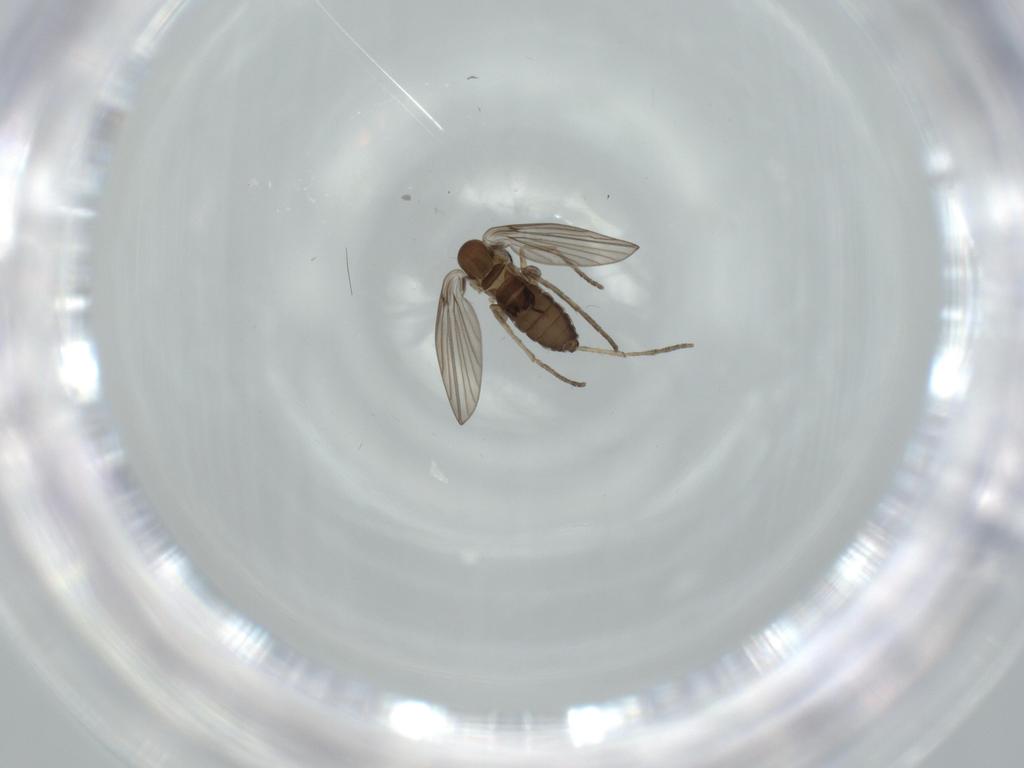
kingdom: Animalia
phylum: Arthropoda
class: Insecta
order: Diptera
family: Psychodidae
